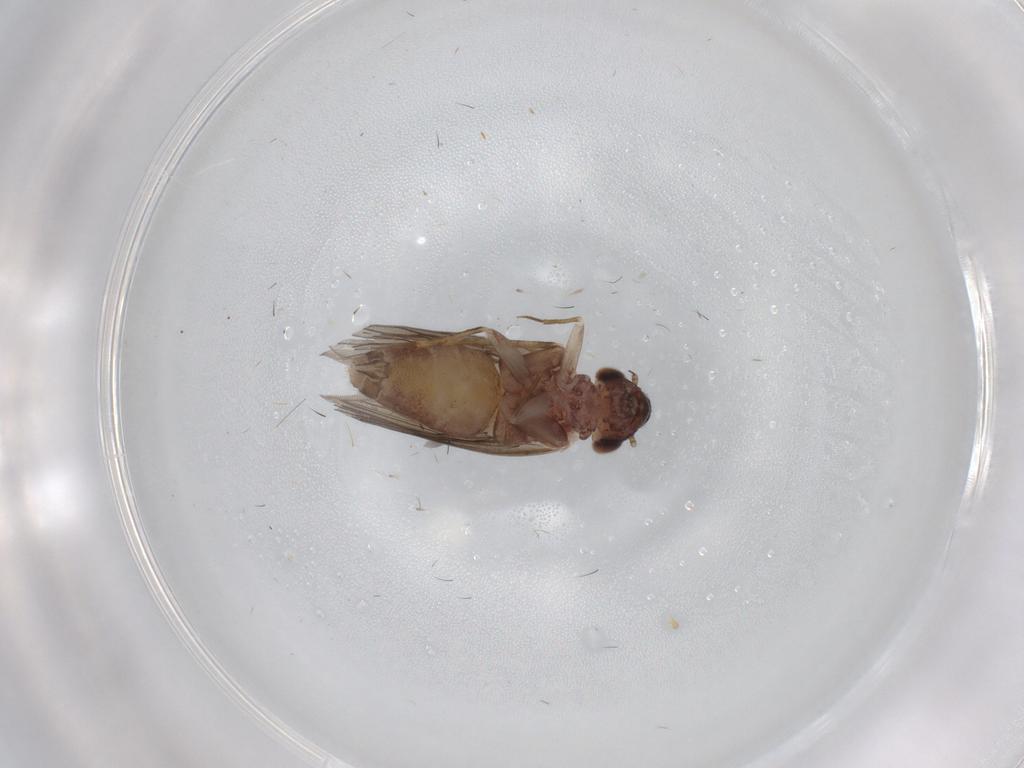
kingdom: Animalia
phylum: Arthropoda
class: Insecta
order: Psocodea
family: Lepidopsocidae
